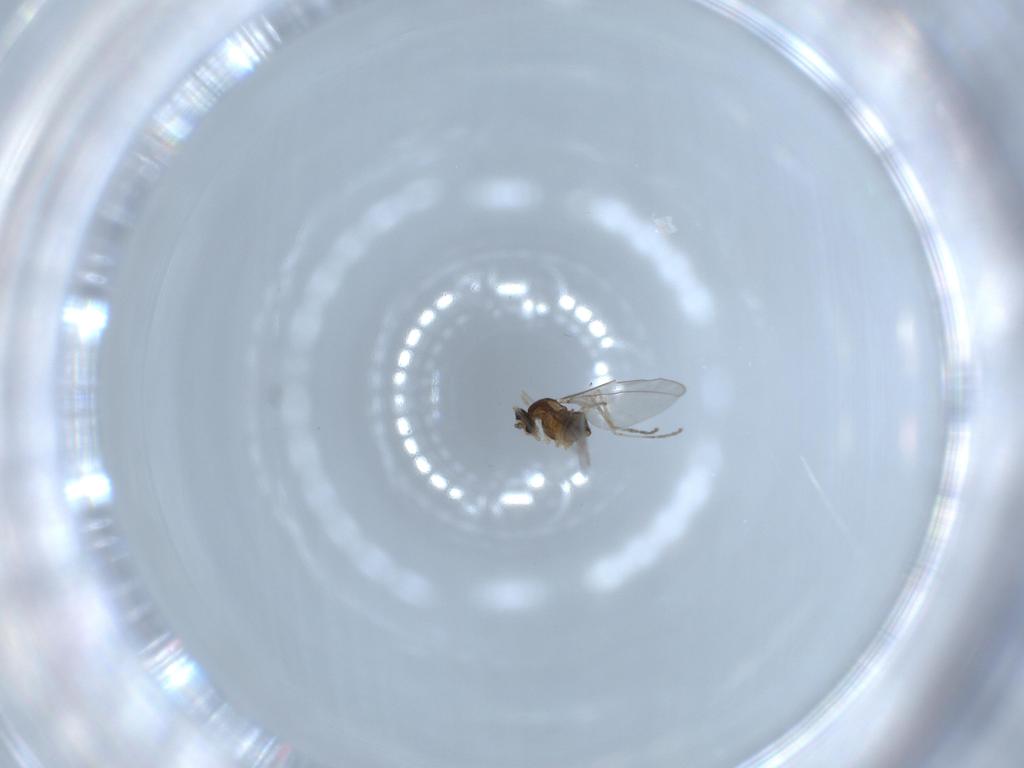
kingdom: Animalia
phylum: Arthropoda
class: Insecta
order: Diptera
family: Cecidomyiidae
